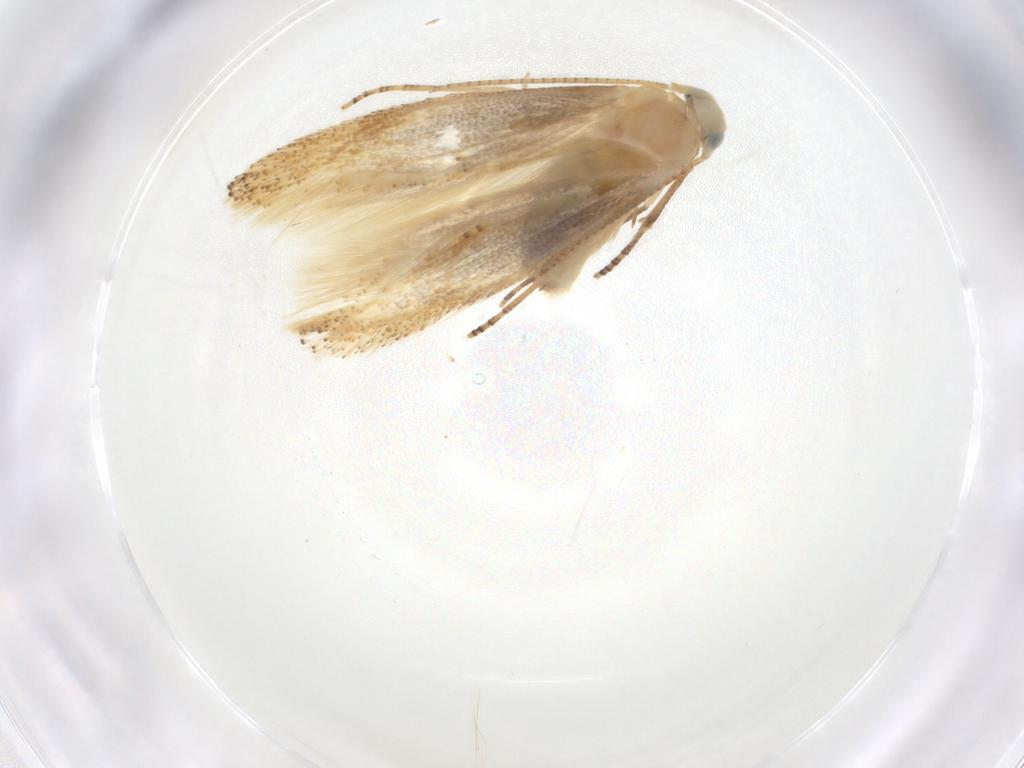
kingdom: Animalia
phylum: Arthropoda
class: Insecta
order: Lepidoptera
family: Bucculatricidae
